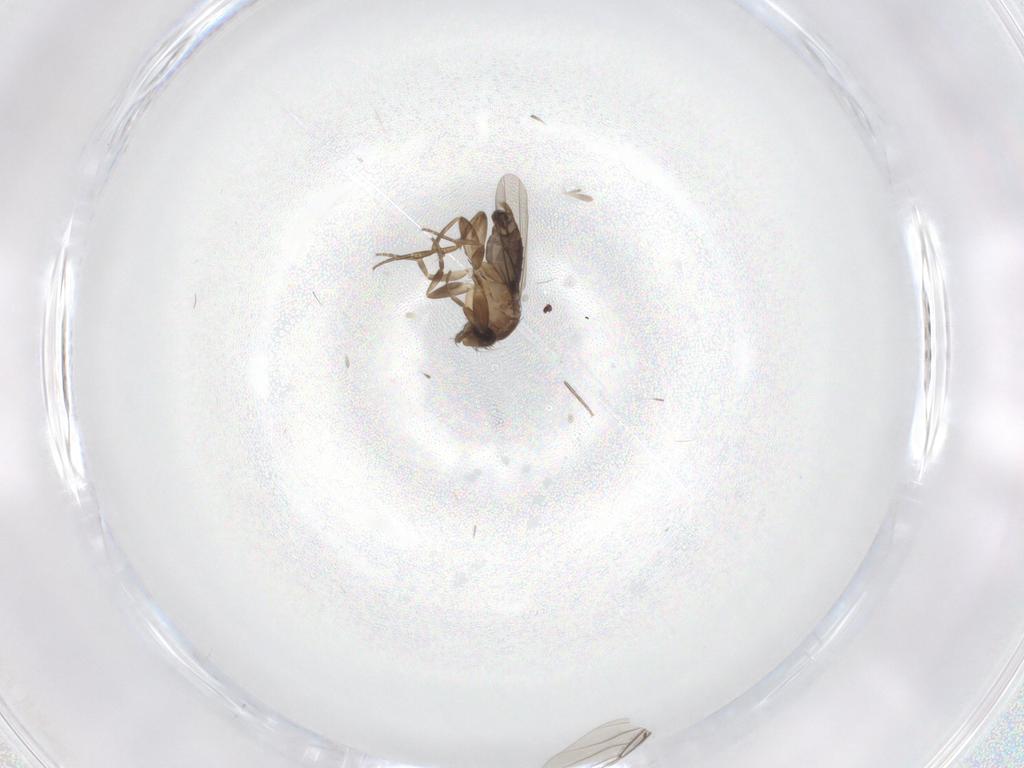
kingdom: Animalia
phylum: Arthropoda
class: Insecta
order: Diptera
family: Phoridae
